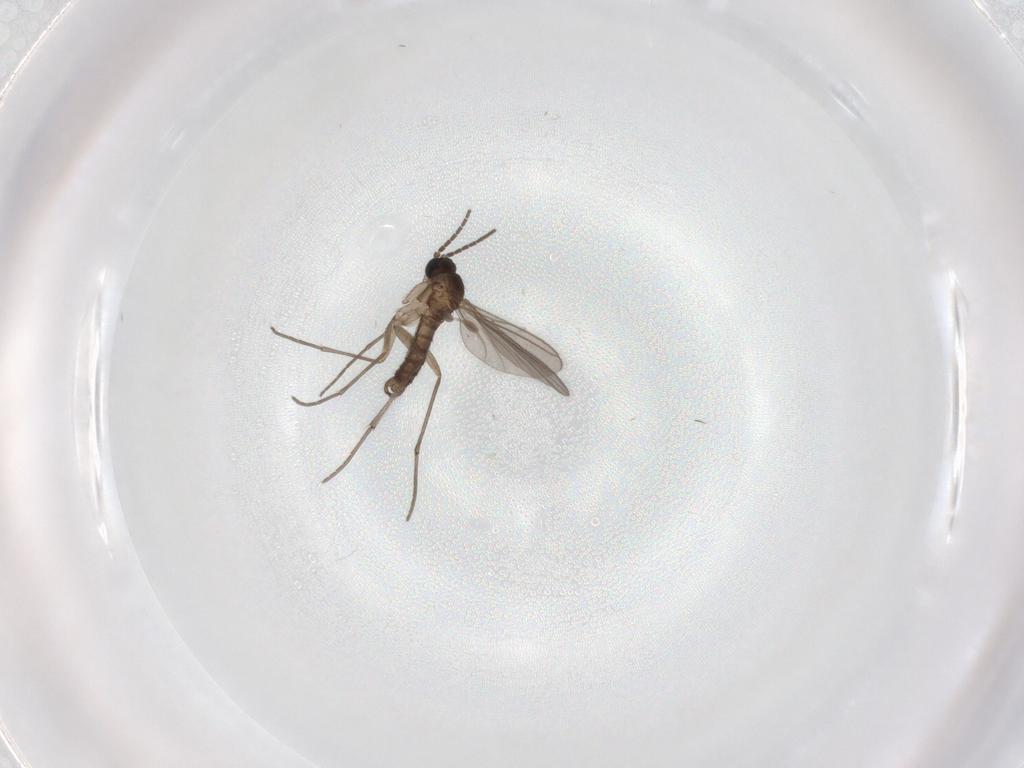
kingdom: Animalia
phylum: Arthropoda
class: Insecta
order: Diptera
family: Sciaridae
